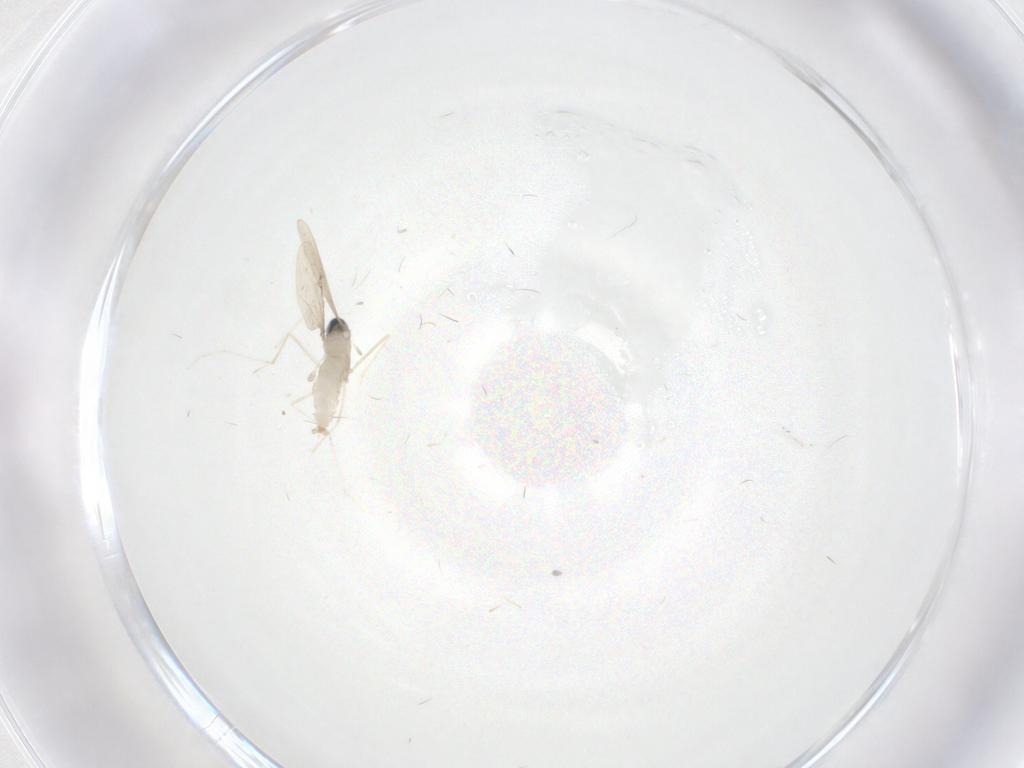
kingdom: Animalia
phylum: Arthropoda
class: Insecta
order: Diptera
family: Cecidomyiidae
